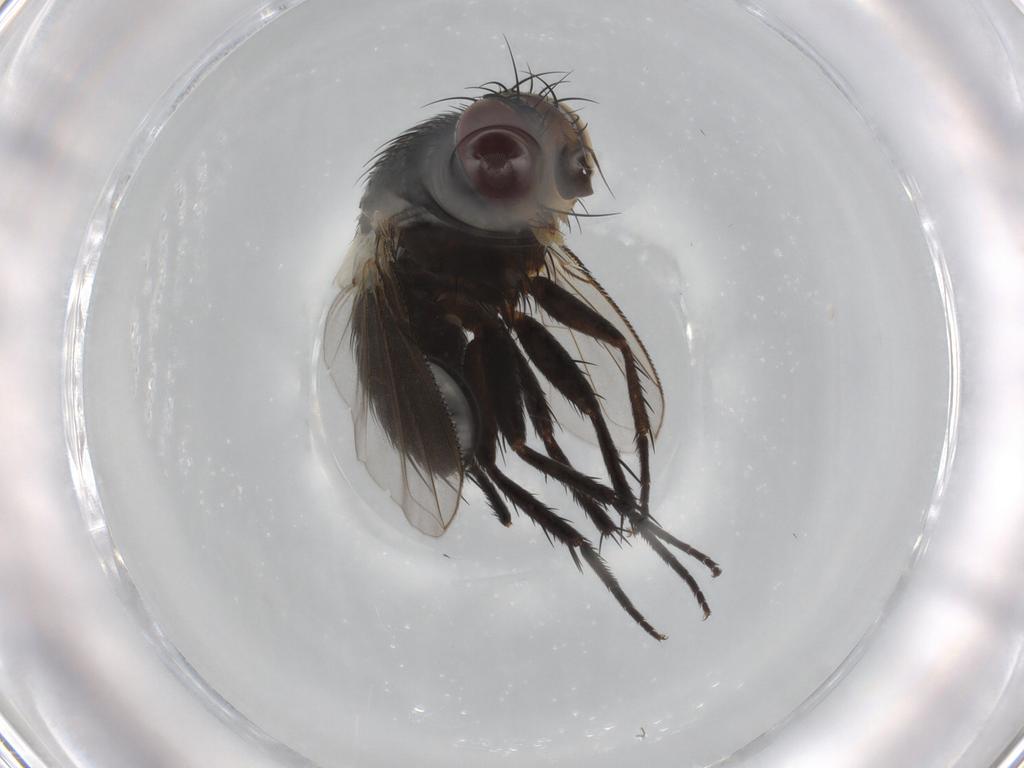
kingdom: Animalia
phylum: Arthropoda
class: Insecta
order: Diptera
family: Tachinidae
